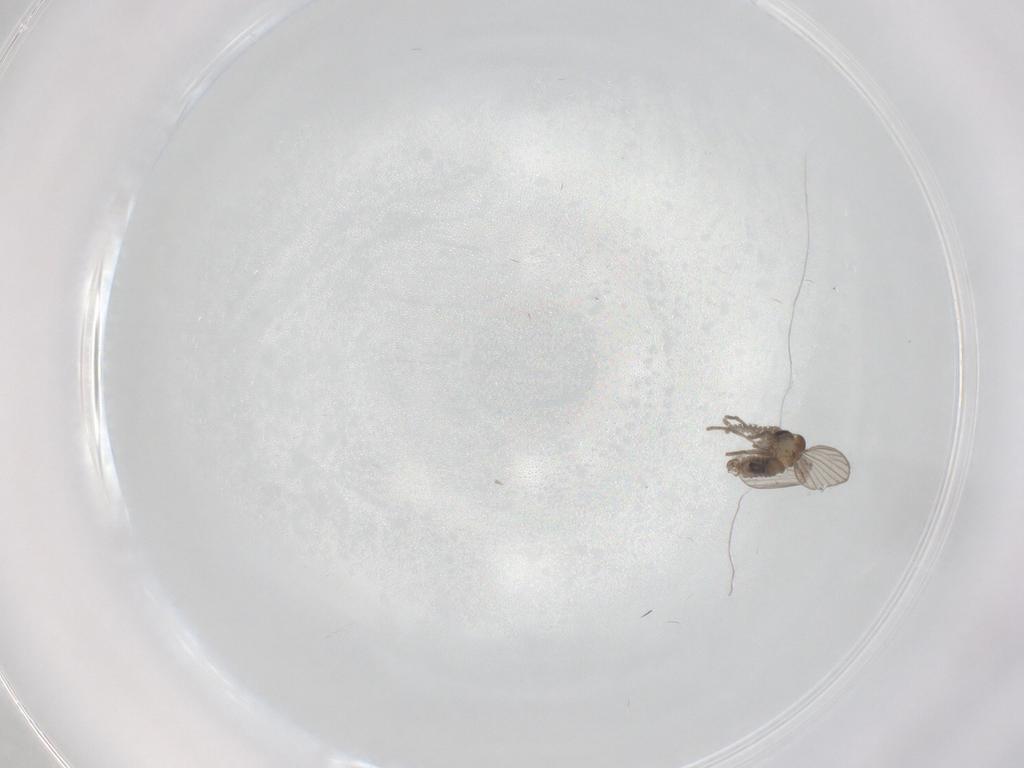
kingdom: Animalia
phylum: Arthropoda
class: Insecta
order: Diptera
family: Psychodidae
